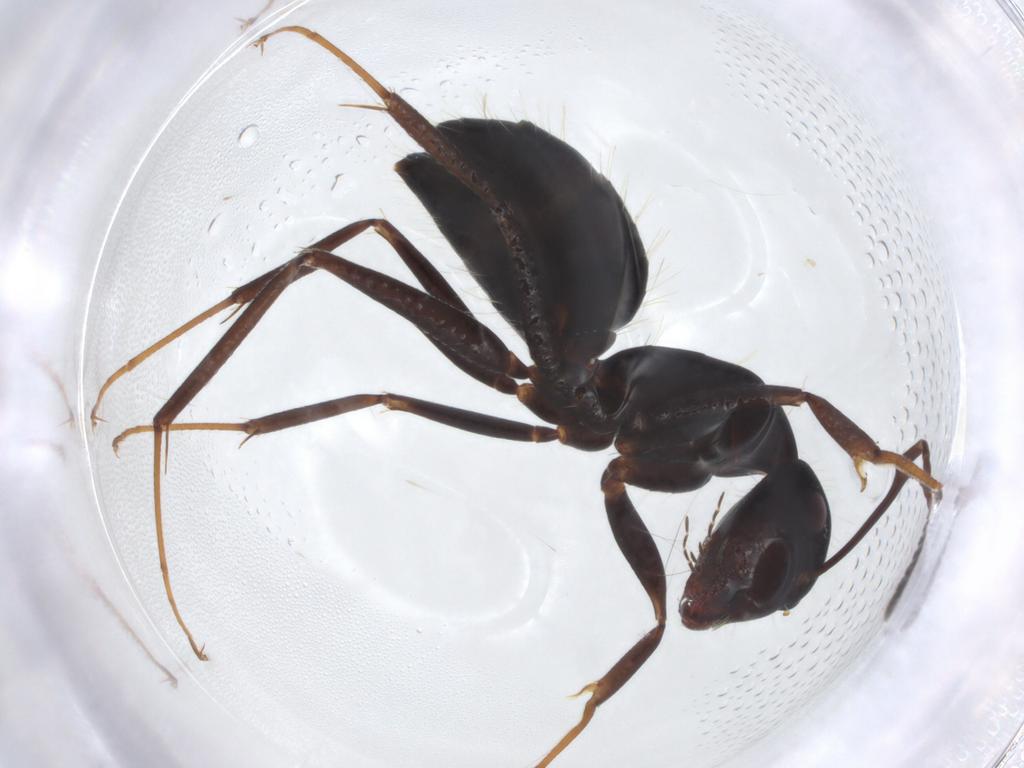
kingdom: Animalia
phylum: Arthropoda
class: Insecta
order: Hymenoptera
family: Formicidae
